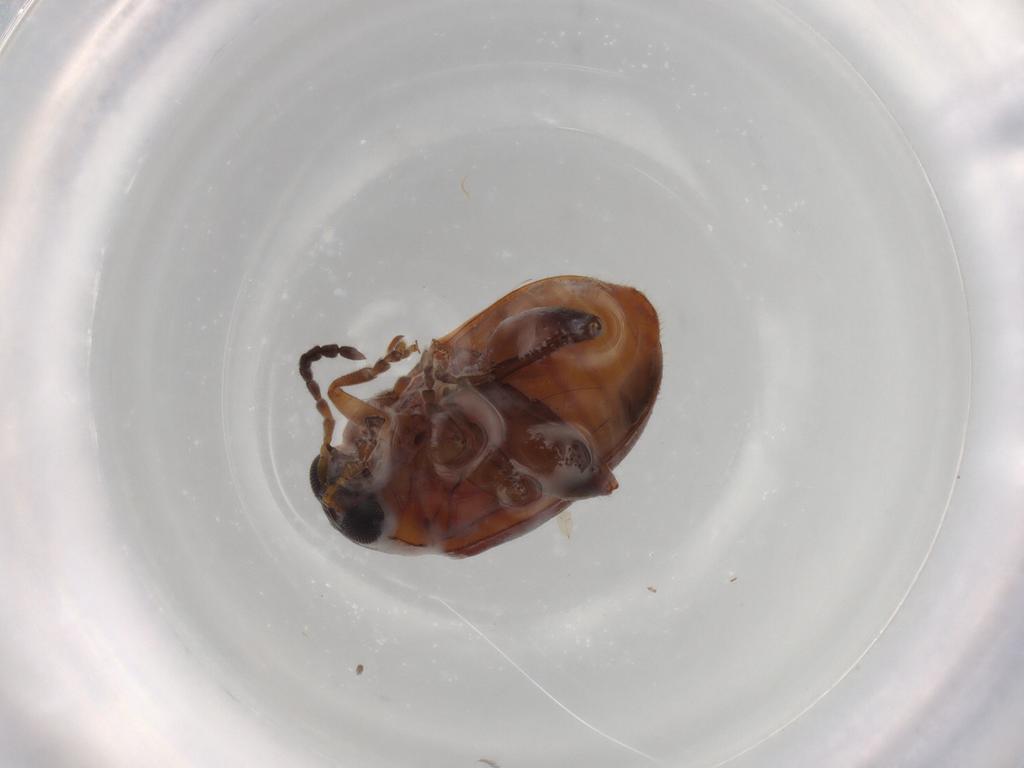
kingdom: Animalia
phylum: Arthropoda
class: Insecta
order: Coleoptera
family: Chrysomelidae
